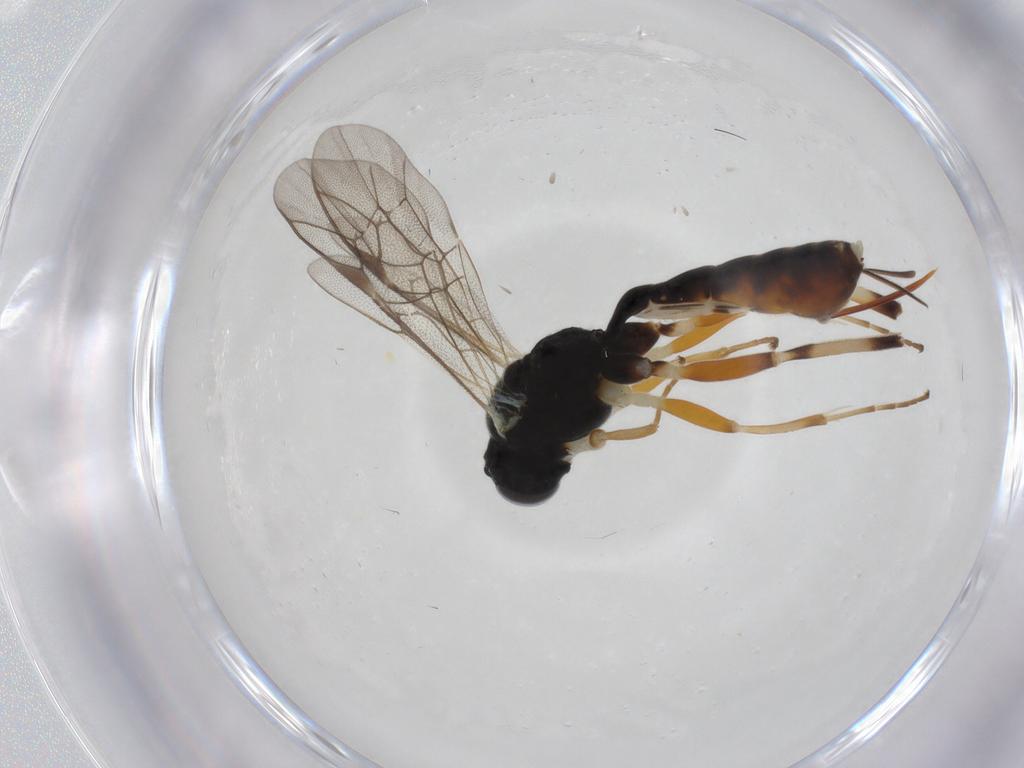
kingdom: Animalia
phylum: Arthropoda
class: Insecta
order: Hymenoptera
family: Ichneumonidae
